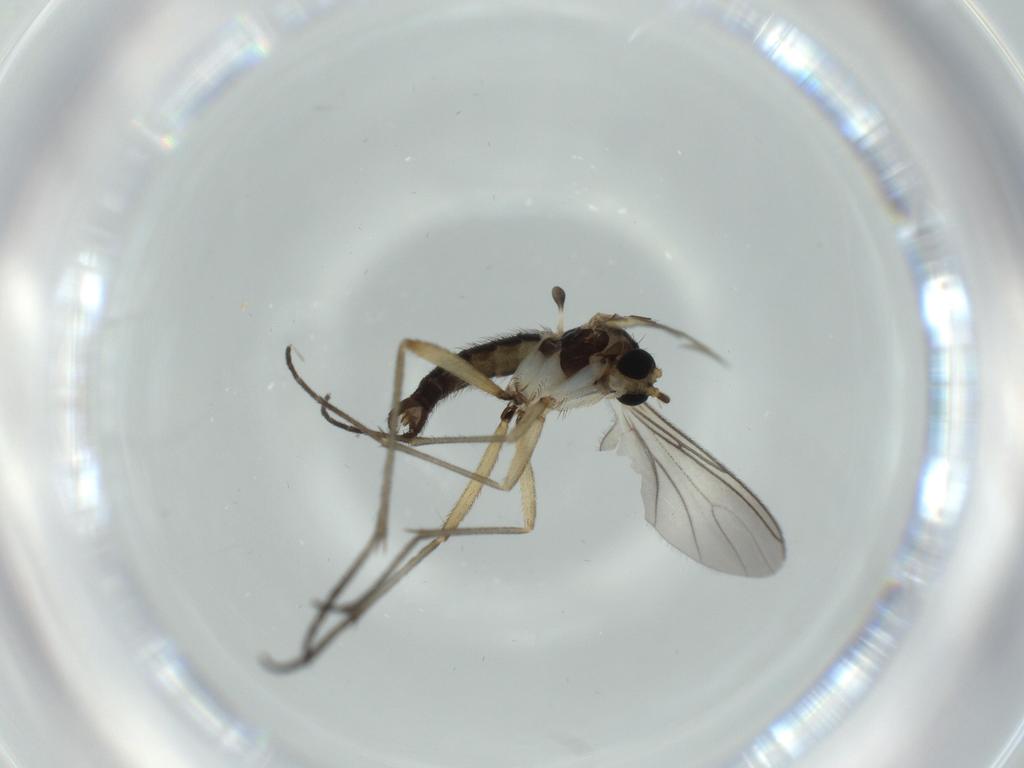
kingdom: Animalia
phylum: Arthropoda
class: Insecta
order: Diptera
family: Sciaridae
